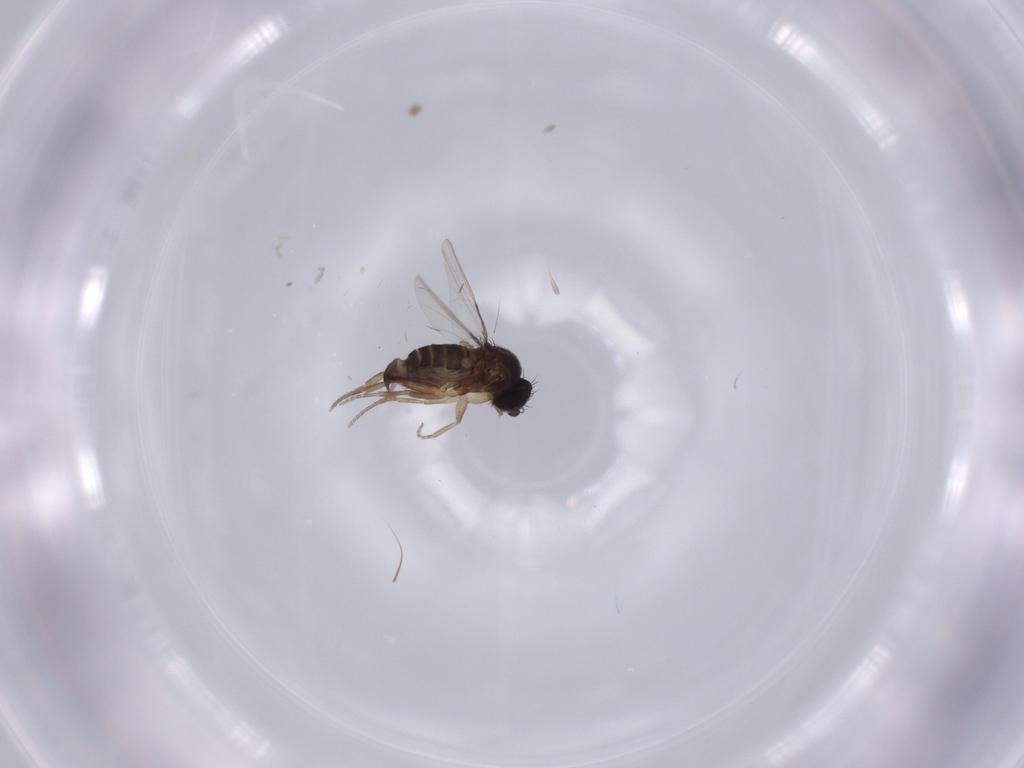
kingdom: Animalia
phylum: Arthropoda
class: Insecta
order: Diptera
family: Phoridae
